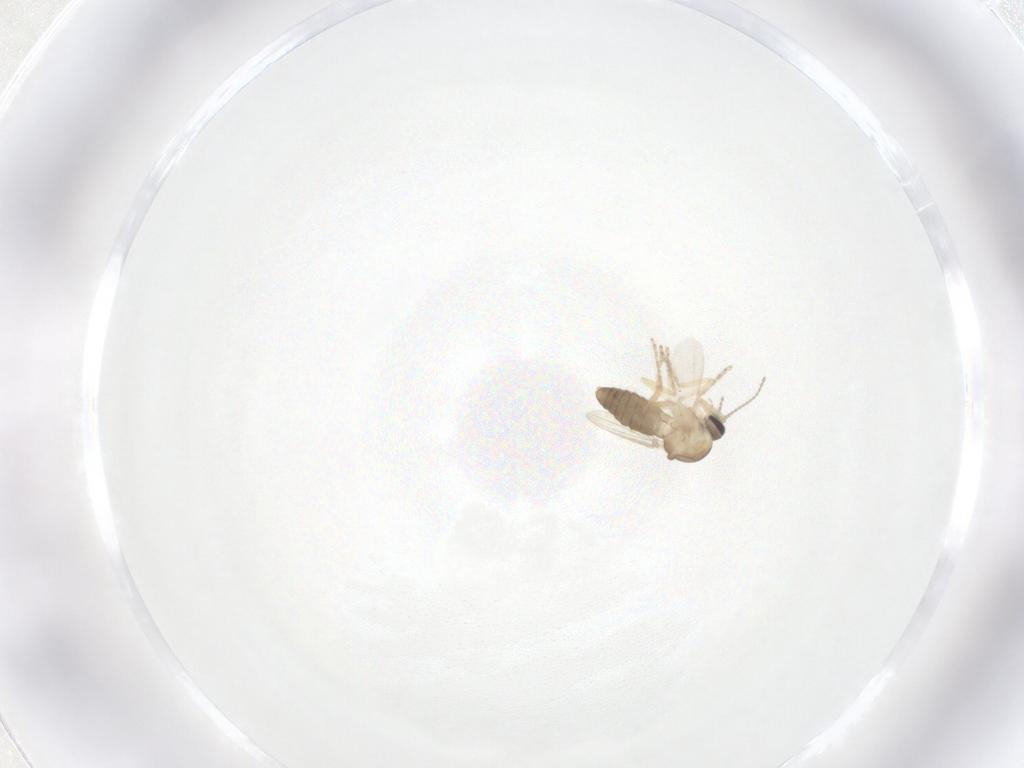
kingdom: Animalia
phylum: Arthropoda
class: Insecta
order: Diptera
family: Ceratopogonidae
